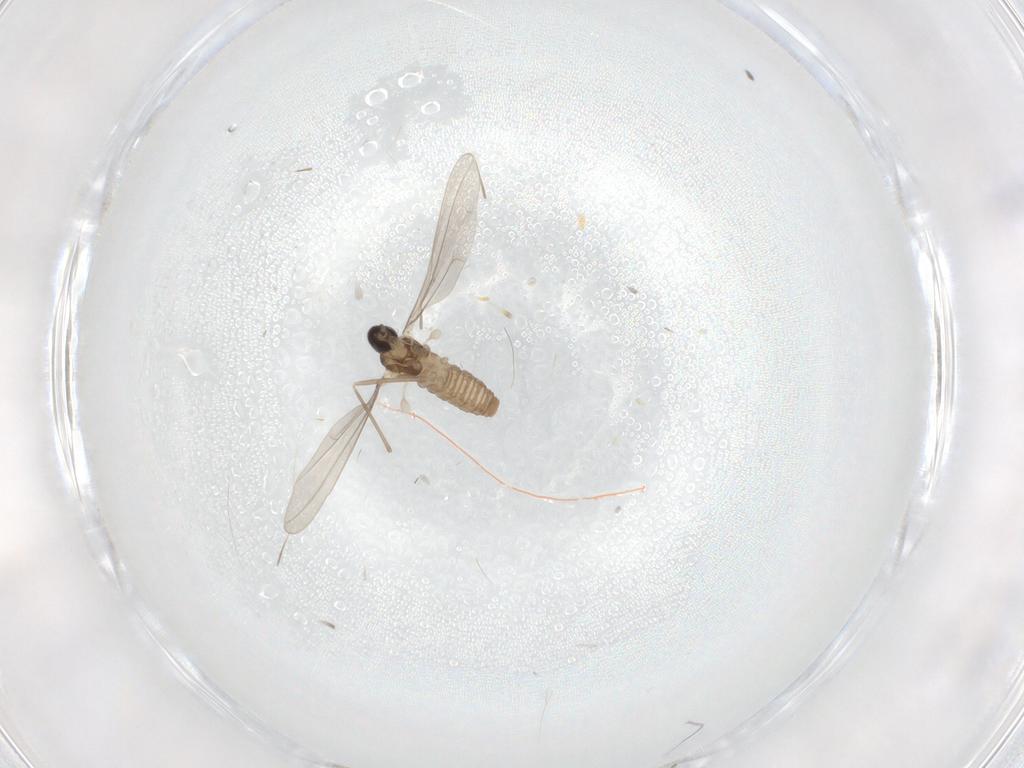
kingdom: Animalia
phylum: Arthropoda
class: Insecta
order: Diptera
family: Cecidomyiidae
